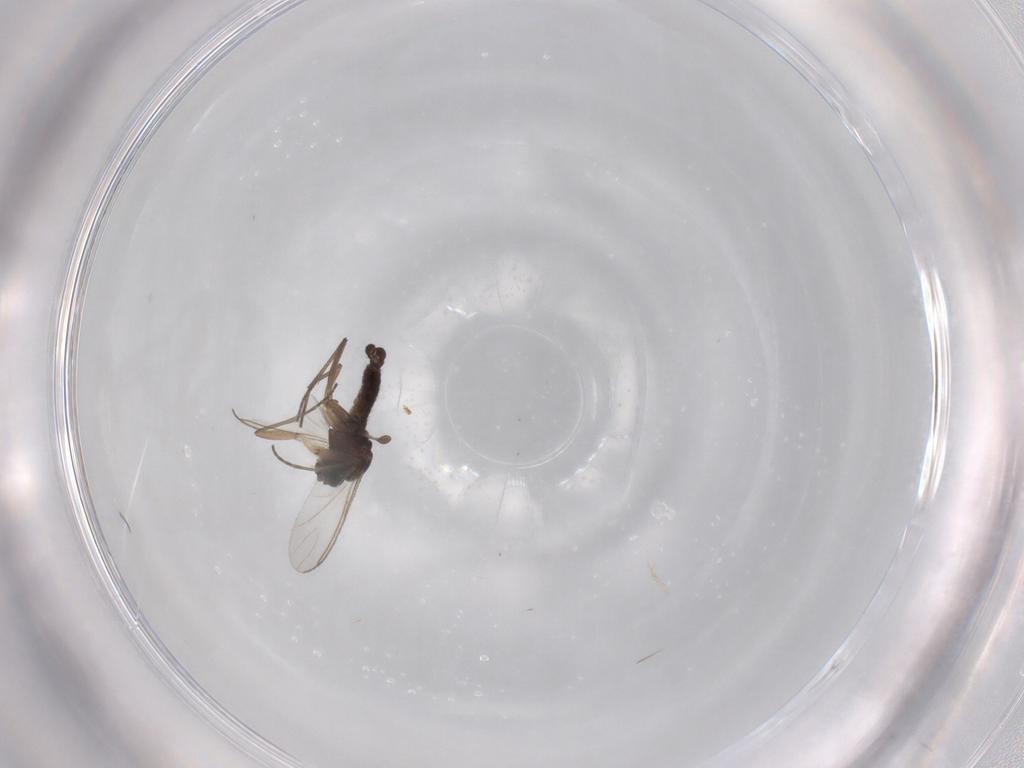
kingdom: Animalia
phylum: Arthropoda
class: Insecta
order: Diptera
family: Sciaridae
